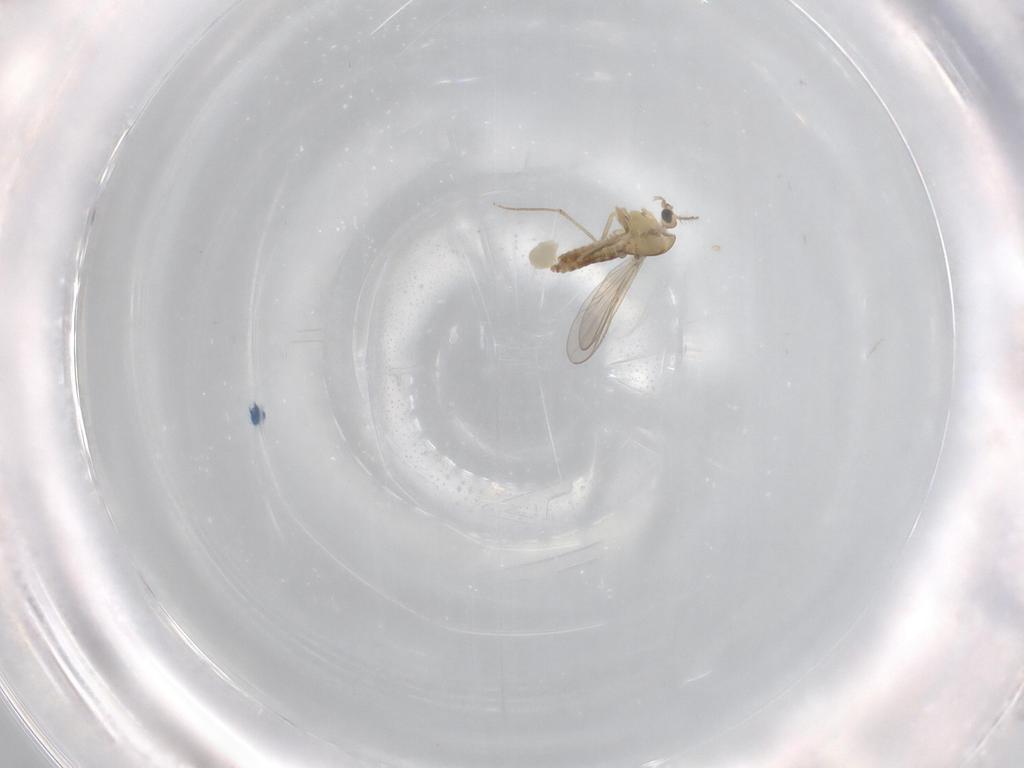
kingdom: Animalia
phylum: Arthropoda
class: Insecta
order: Diptera
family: Chironomidae
